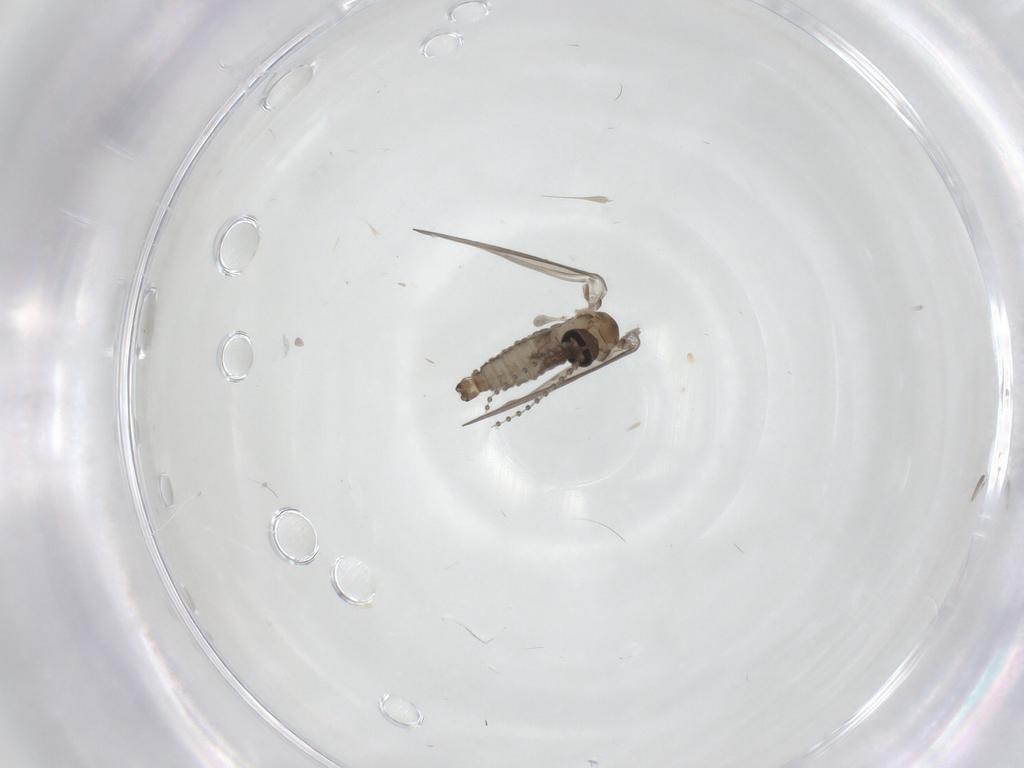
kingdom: Animalia
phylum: Arthropoda
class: Insecta
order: Diptera
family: Psychodidae
